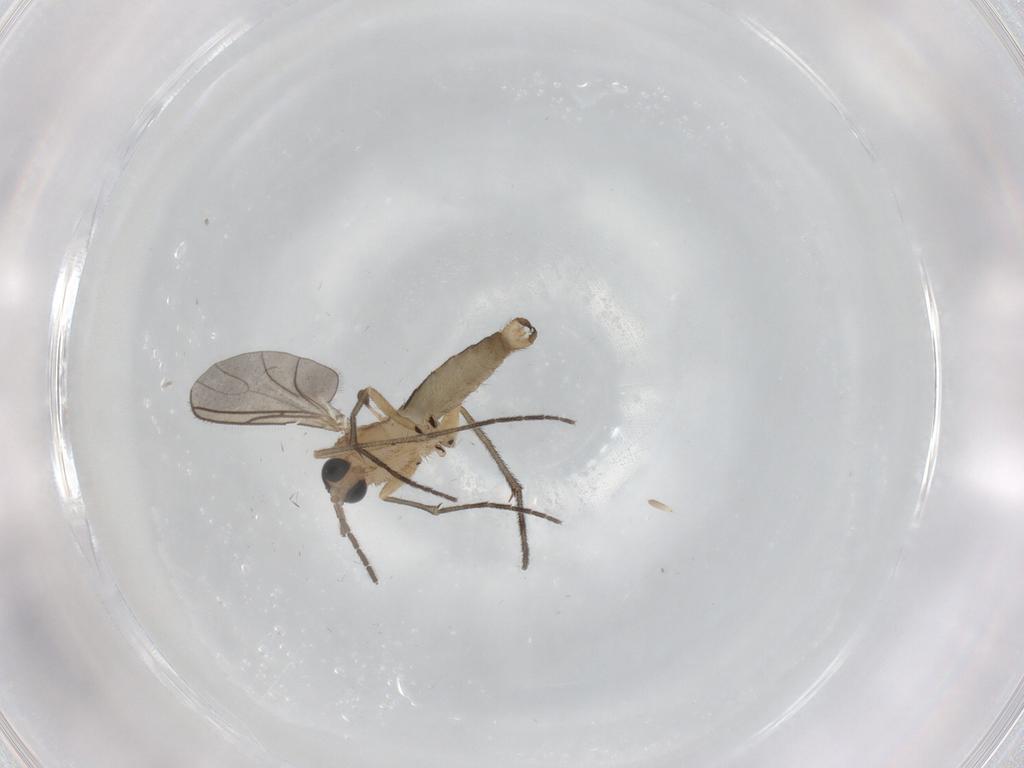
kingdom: Animalia
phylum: Arthropoda
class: Insecta
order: Diptera
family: Sciaridae
